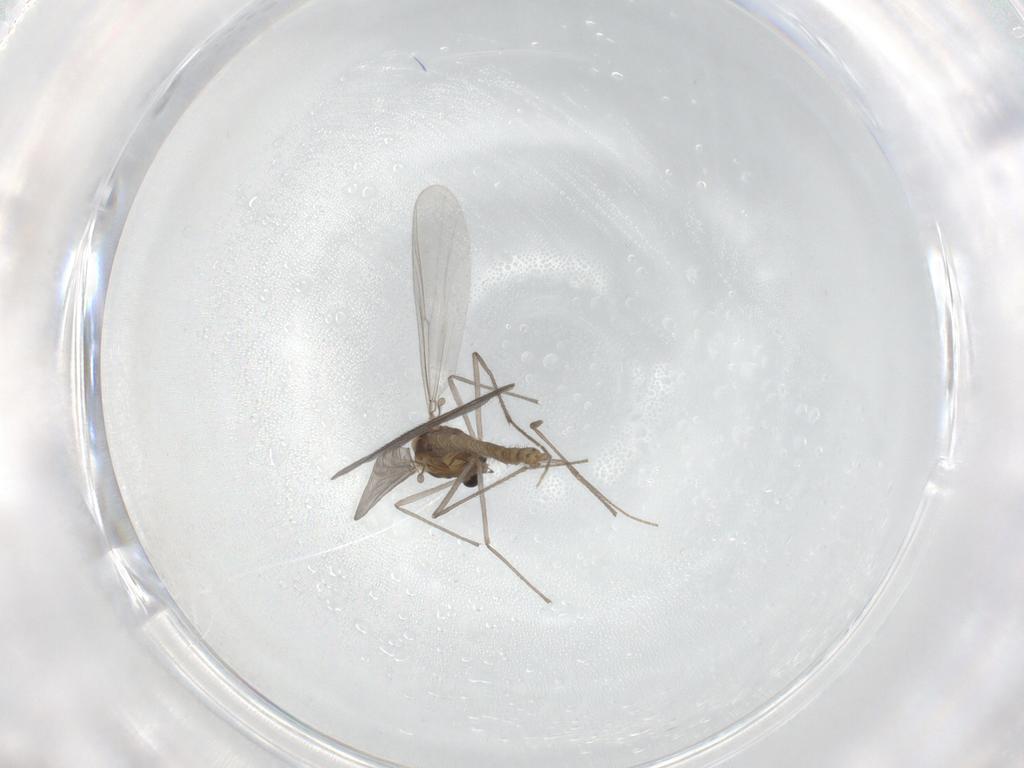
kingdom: Animalia
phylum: Arthropoda
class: Insecta
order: Diptera
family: Chironomidae
